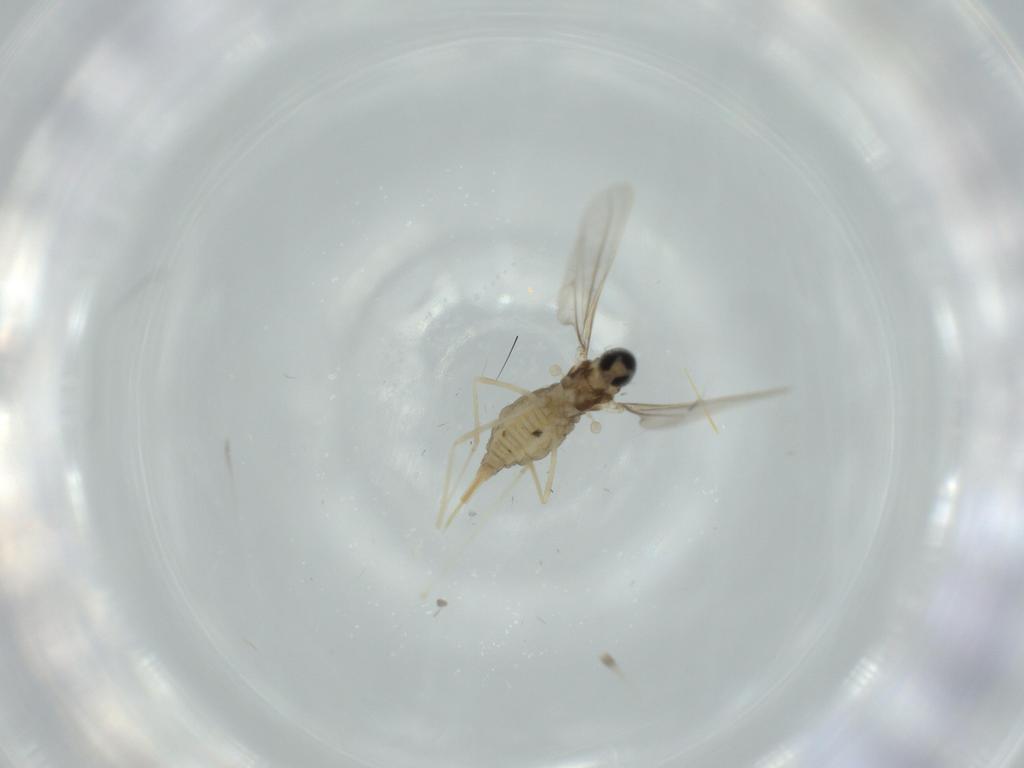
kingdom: Animalia
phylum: Arthropoda
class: Insecta
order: Diptera
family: Cecidomyiidae
